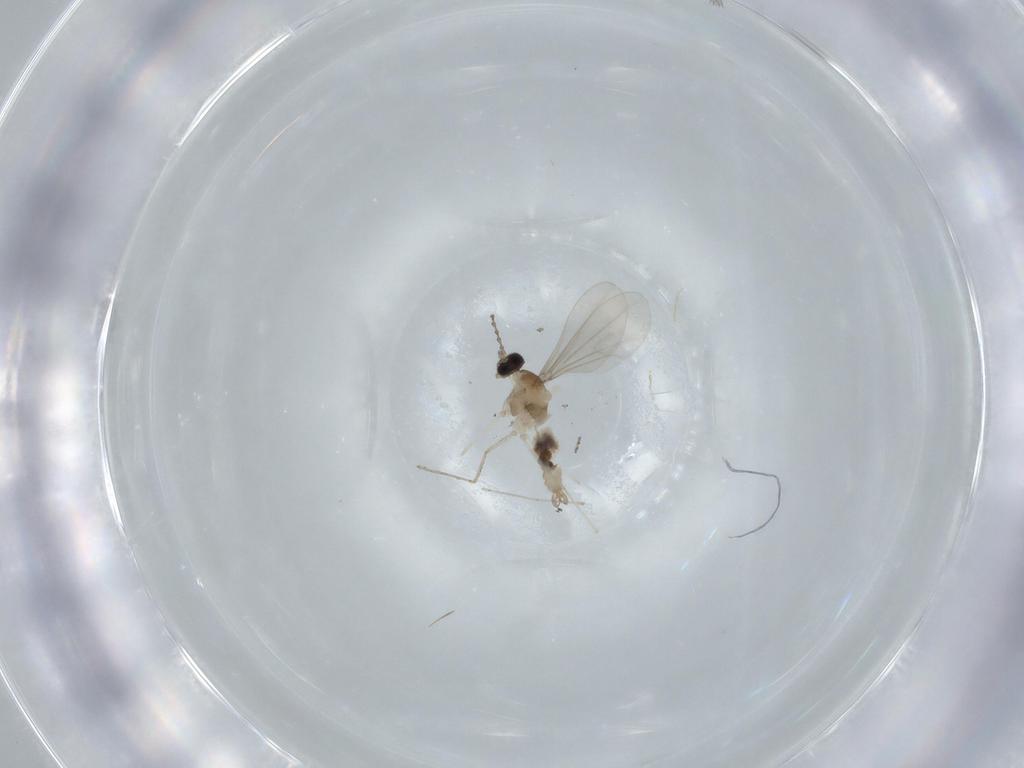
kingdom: Animalia
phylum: Arthropoda
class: Insecta
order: Diptera
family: Cecidomyiidae
